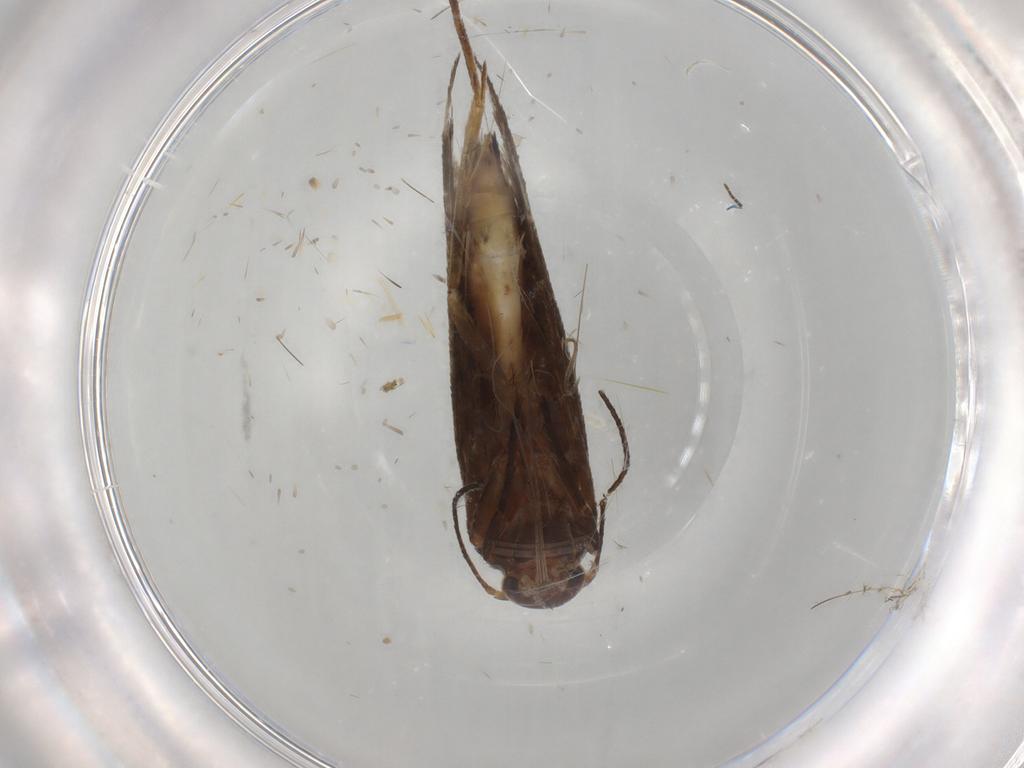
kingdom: Animalia
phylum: Arthropoda
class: Insecta
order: Lepidoptera
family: Scythrididae
